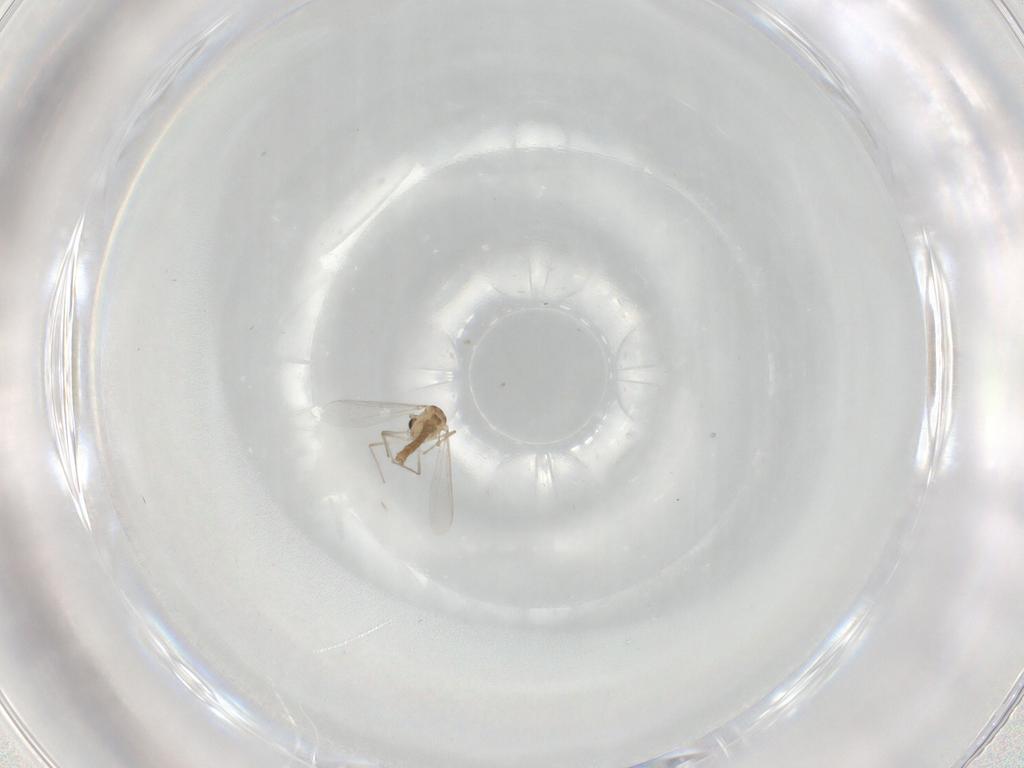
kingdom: Animalia
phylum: Arthropoda
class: Insecta
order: Diptera
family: Chironomidae
